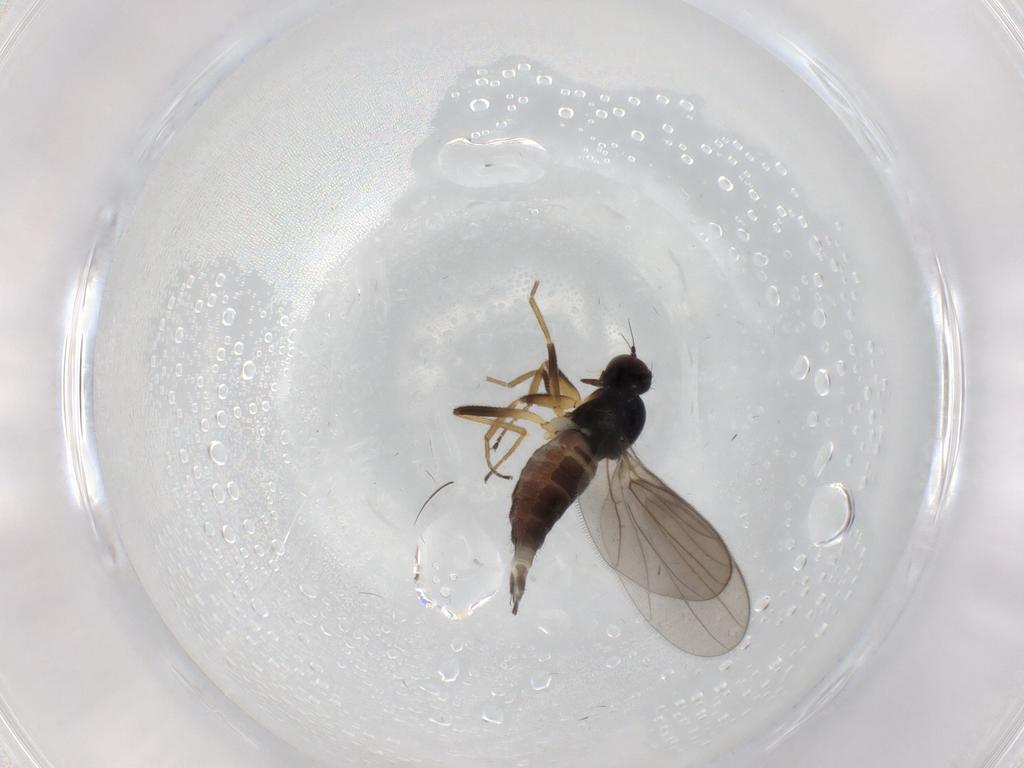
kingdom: Animalia
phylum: Arthropoda
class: Insecta
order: Diptera
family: Hybotidae
